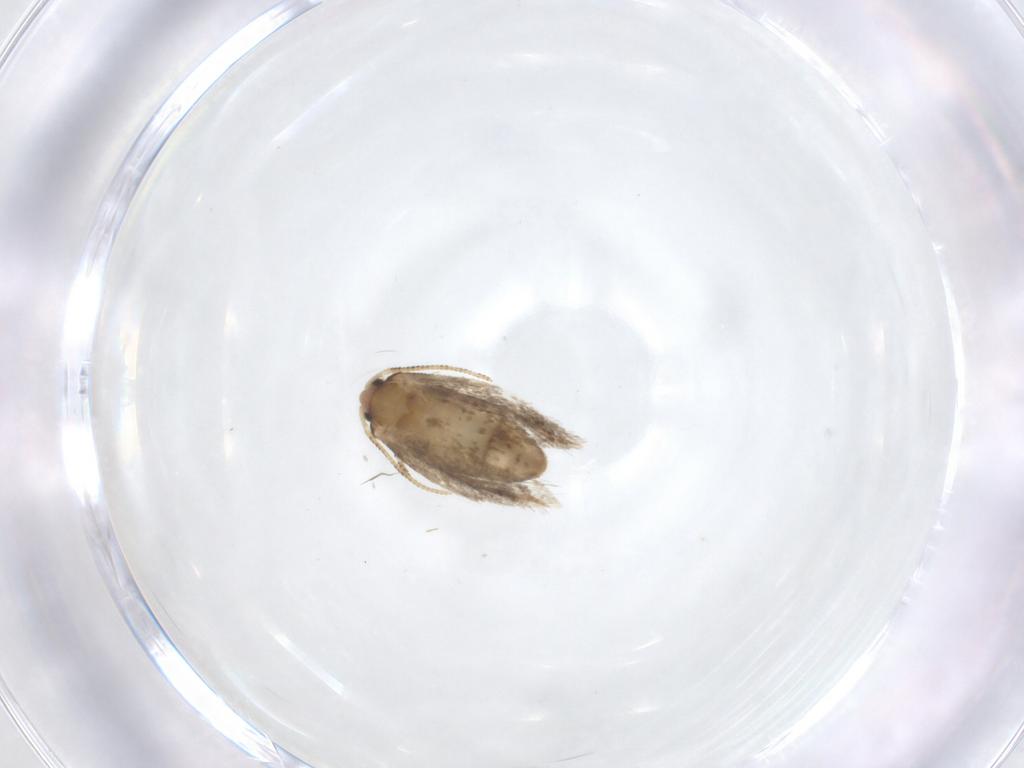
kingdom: Animalia
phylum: Arthropoda
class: Insecta
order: Lepidoptera
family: Nepticulidae
